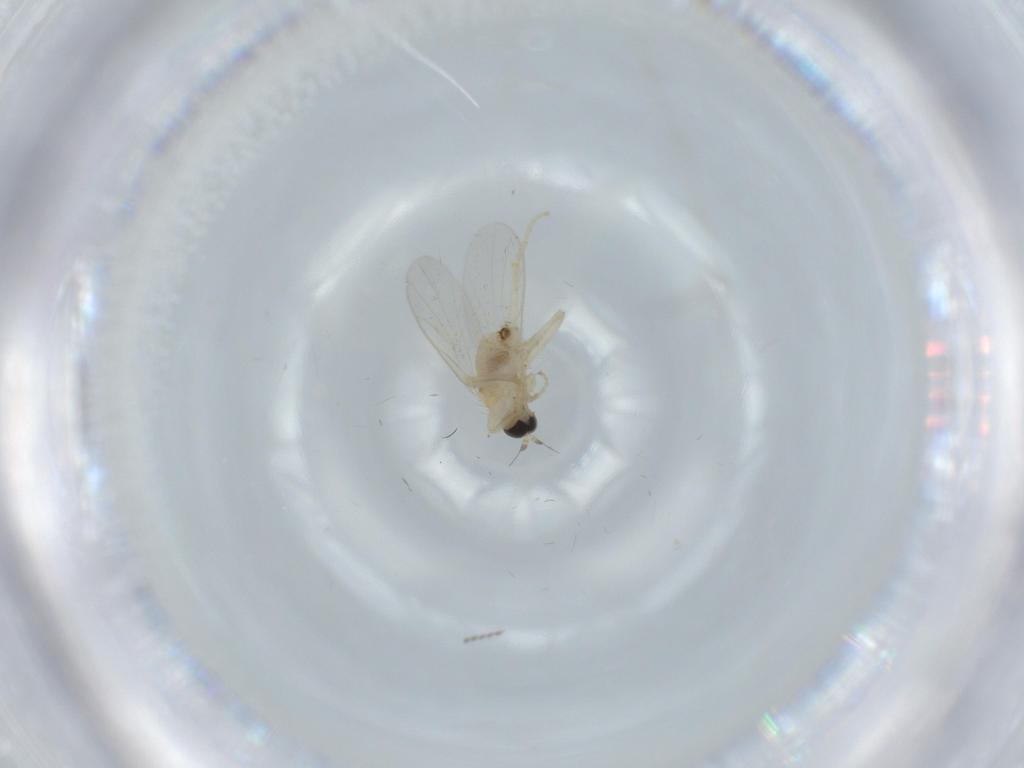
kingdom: Animalia
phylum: Arthropoda
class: Insecta
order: Diptera
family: Hybotidae
